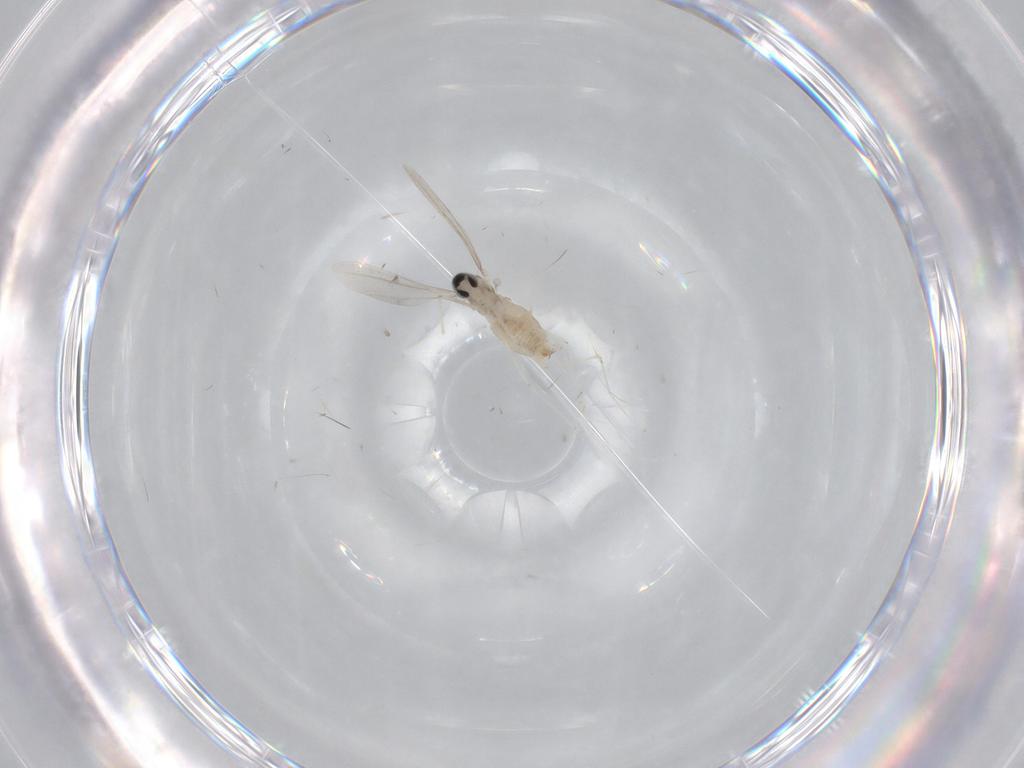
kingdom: Animalia
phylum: Arthropoda
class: Insecta
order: Diptera
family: Cecidomyiidae
